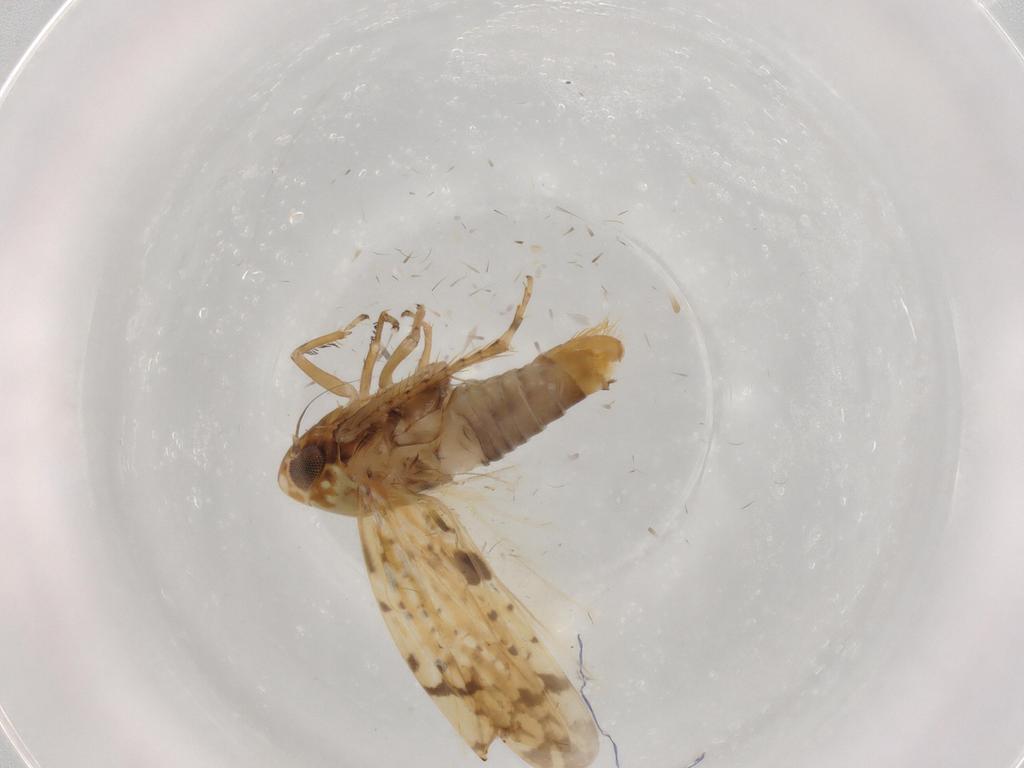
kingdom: Animalia
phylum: Arthropoda
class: Insecta
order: Hemiptera
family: Cicadellidae
